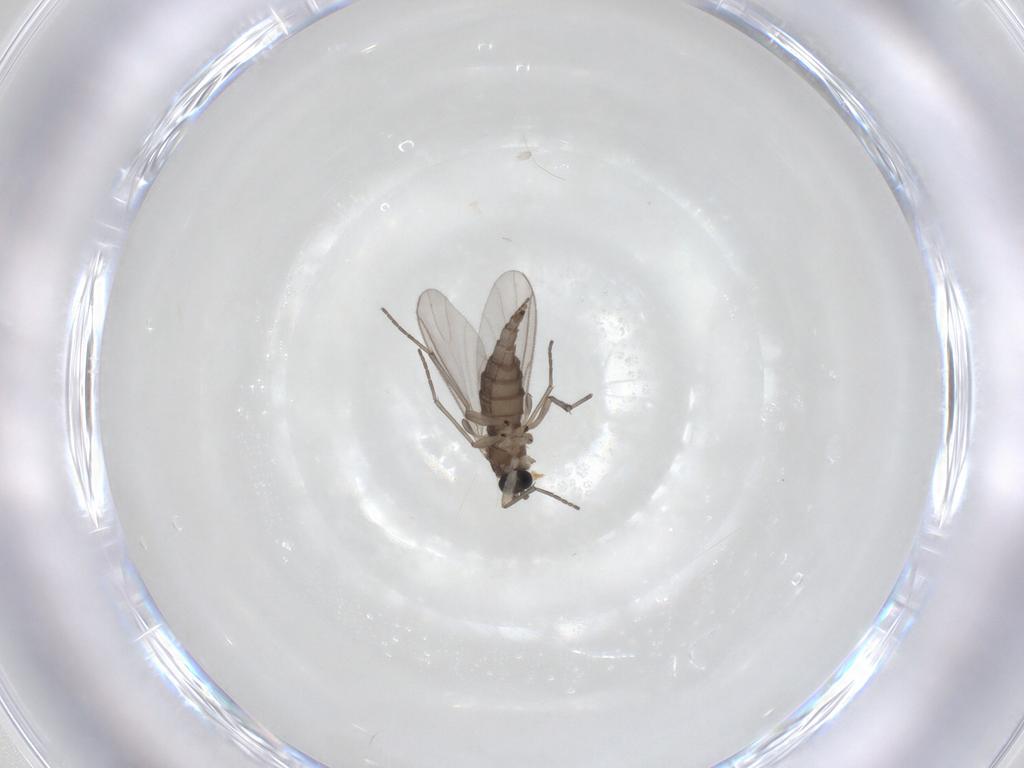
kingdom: Animalia
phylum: Arthropoda
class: Insecta
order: Diptera
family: Sciaridae
